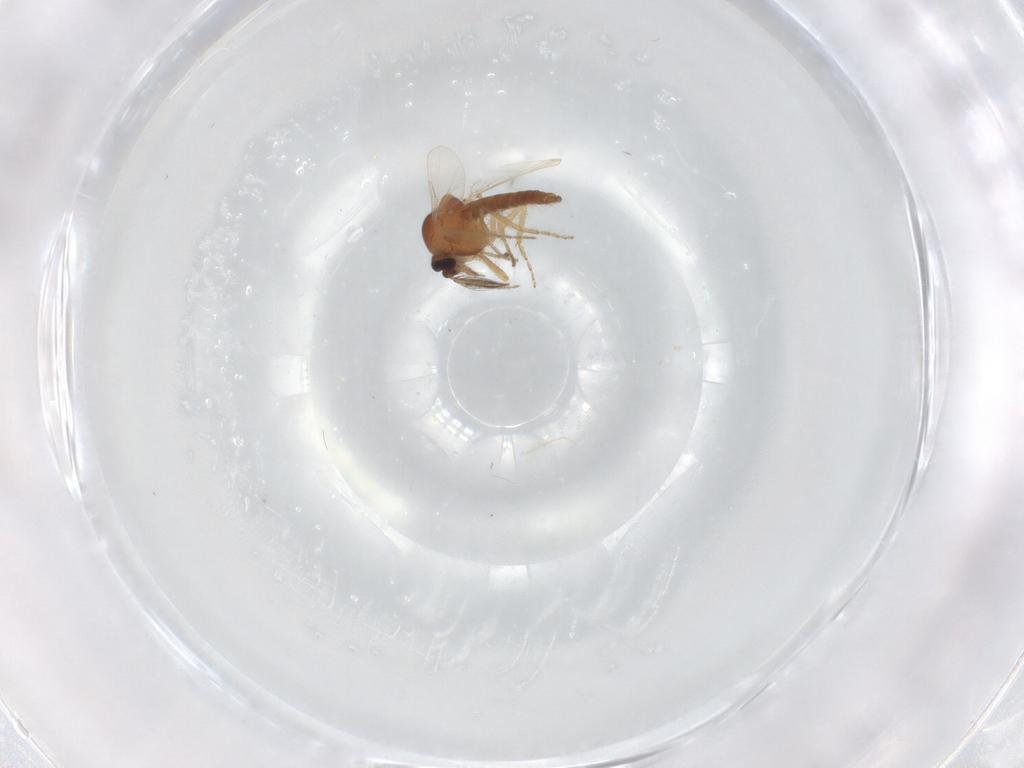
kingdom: Animalia
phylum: Arthropoda
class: Insecta
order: Diptera
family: Ceratopogonidae
